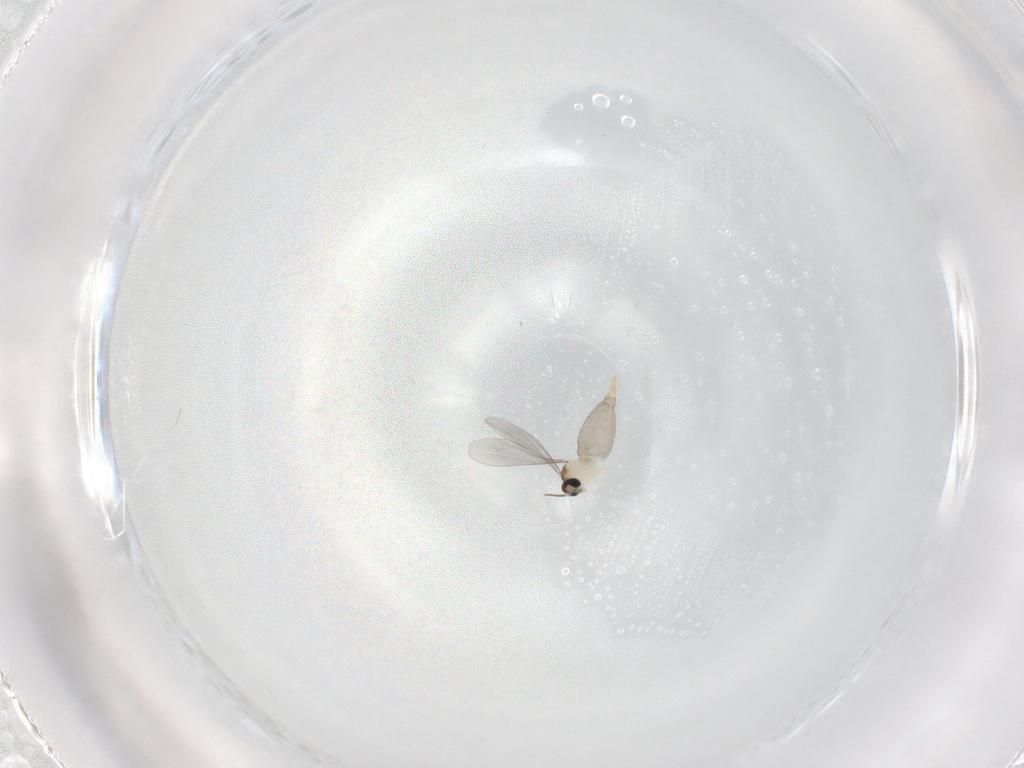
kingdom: Animalia
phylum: Arthropoda
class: Insecta
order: Diptera
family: Cecidomyiidae
